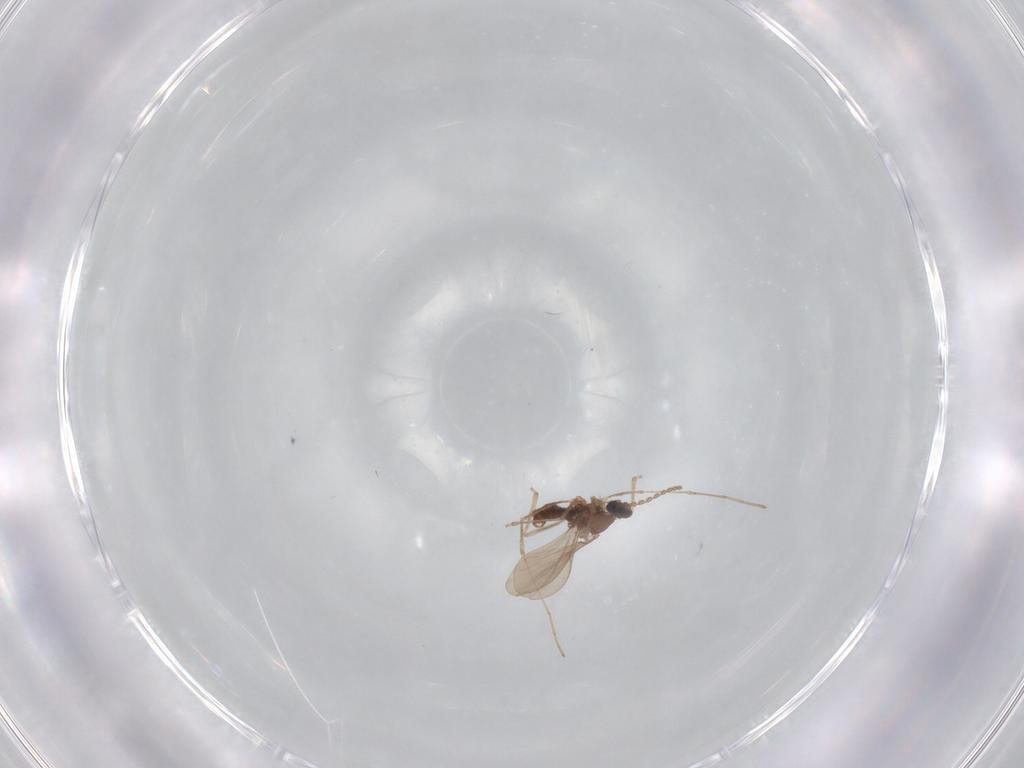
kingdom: Animalia
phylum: Arthropoda
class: Insecta
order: Diptera
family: Cecidomyiidae
